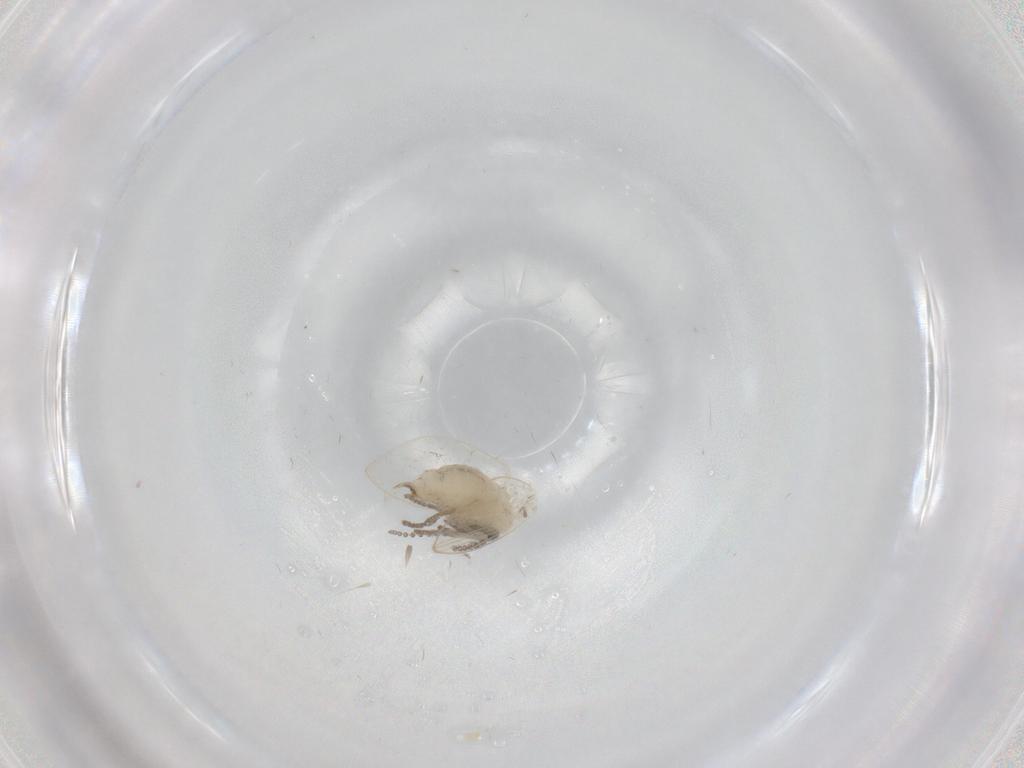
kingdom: Animalia
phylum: Arthropoda
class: Insecta
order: Diptera
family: Psychodidae
